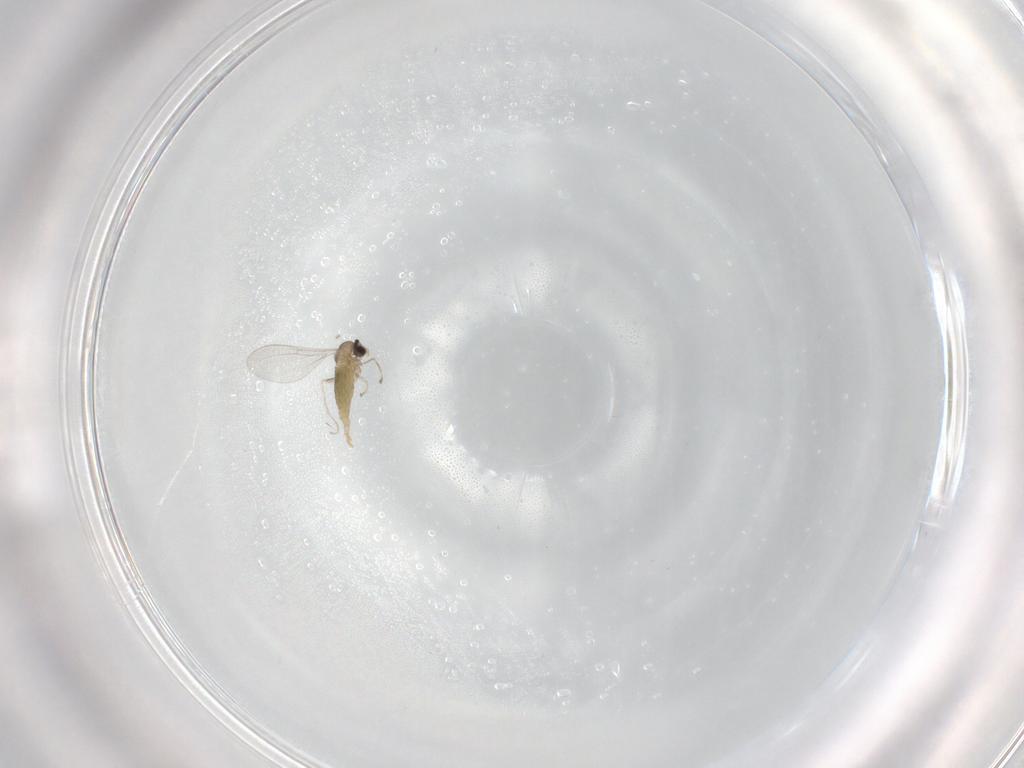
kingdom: Animalia
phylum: Arthropoda
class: Insecta
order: Diptera
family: Cecidomyiidae
